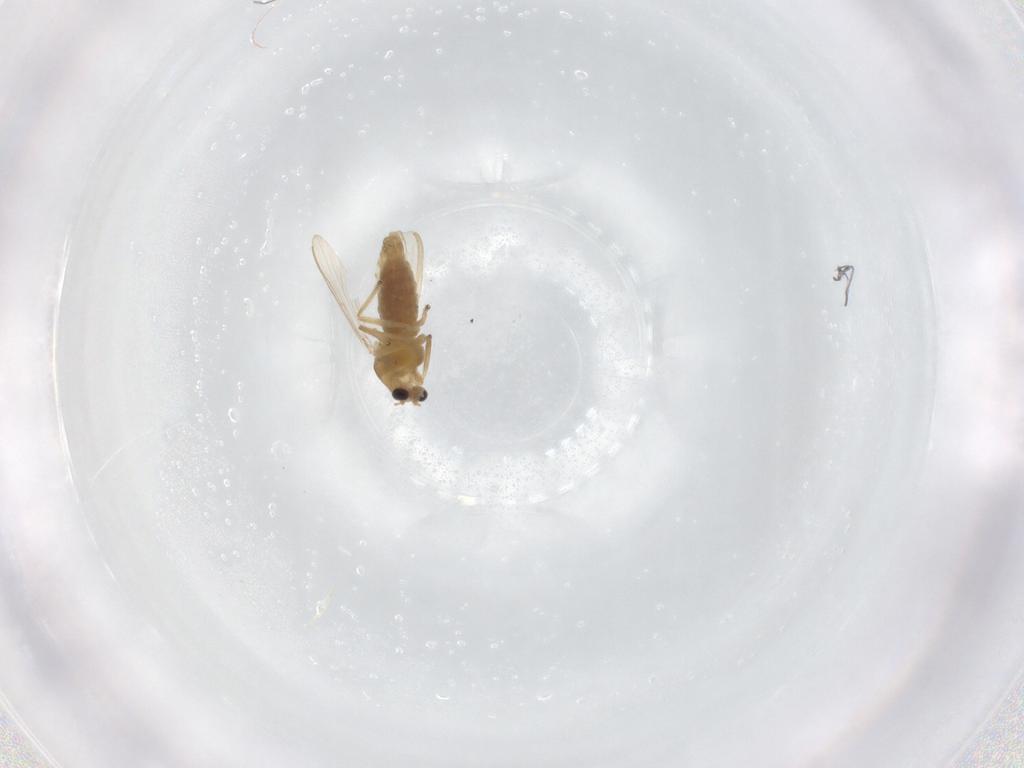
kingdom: Animalia
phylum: Arthropoda
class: Insecta
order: Diptera
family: Chironomidae
